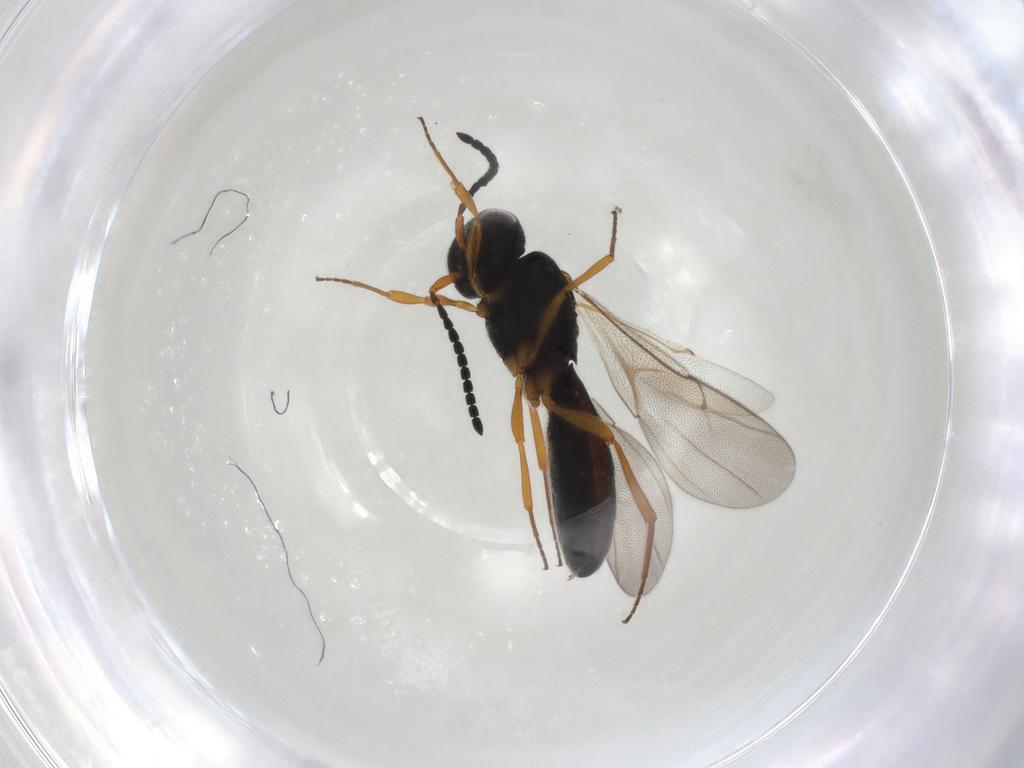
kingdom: Animalia
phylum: Arthropoda
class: Insecta
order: Hymenoptera
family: Scelionidae
